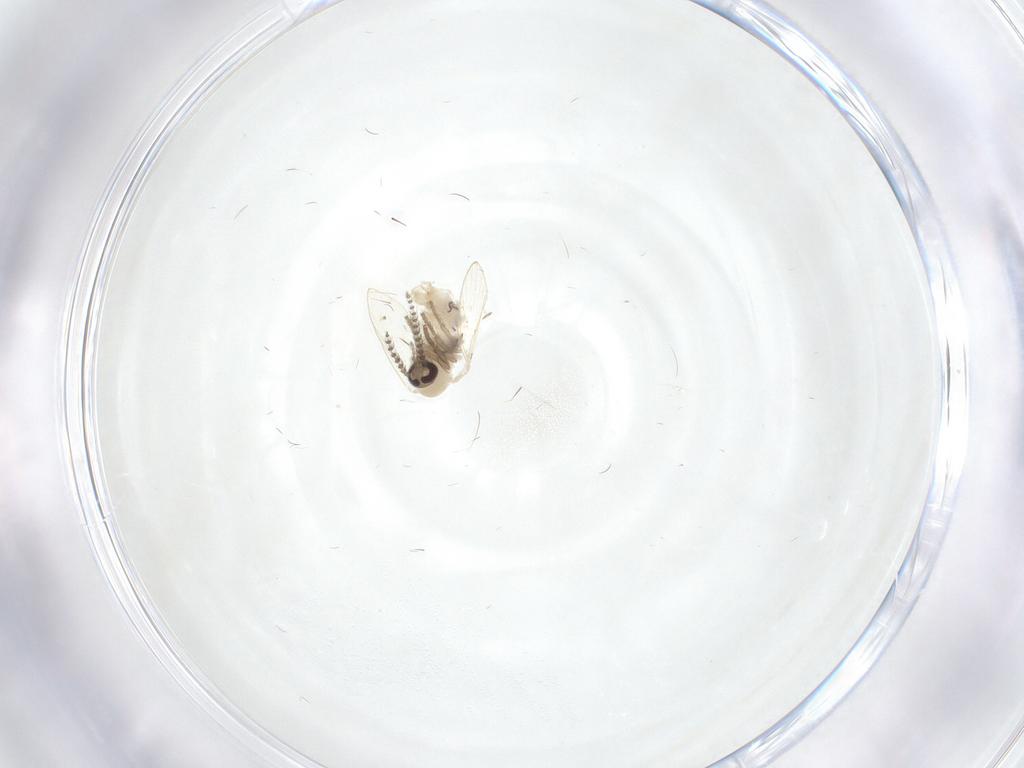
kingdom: Animalia
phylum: Arthropoda
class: Insecta
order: Diptera
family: Psychodidae
